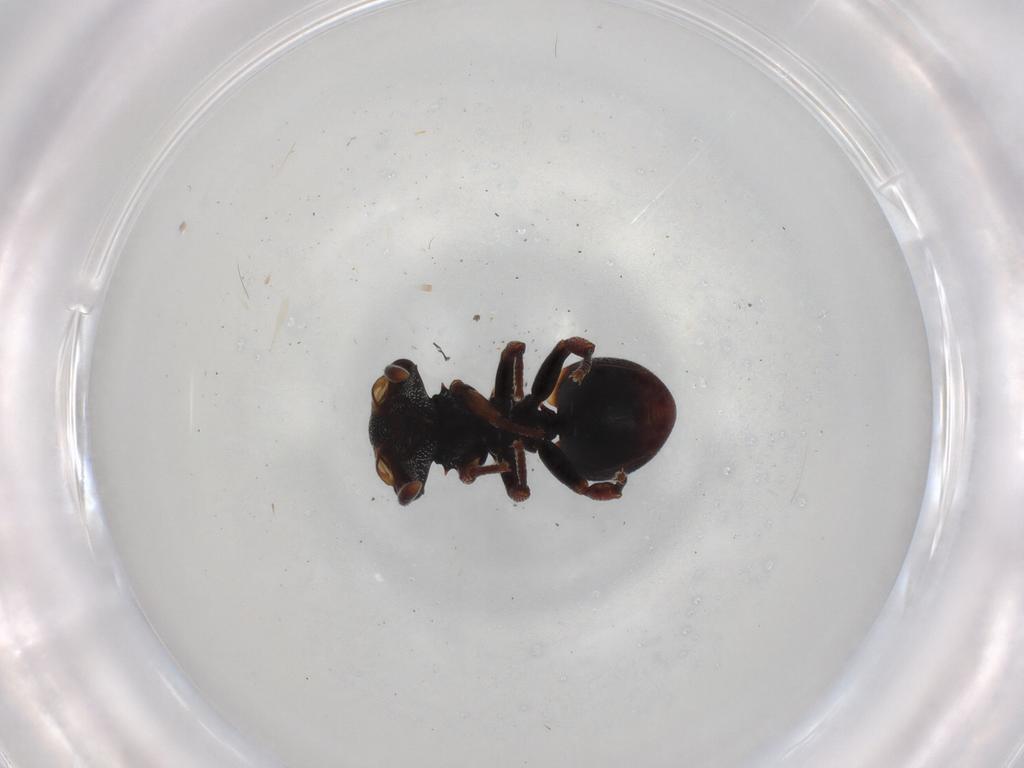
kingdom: Animalia
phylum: Arthropoda
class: Insecta
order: Hymenoptera
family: Formicidae
